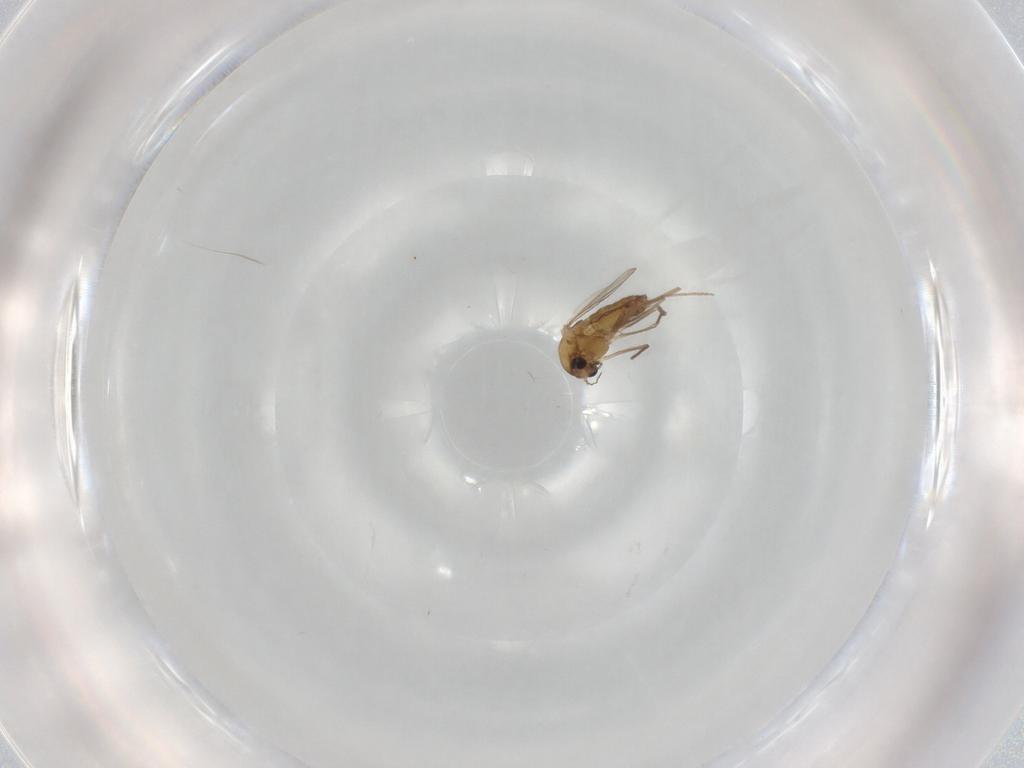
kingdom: Animalia
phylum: Arthropoda
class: Insecta
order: Diptera
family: Chironomidae
